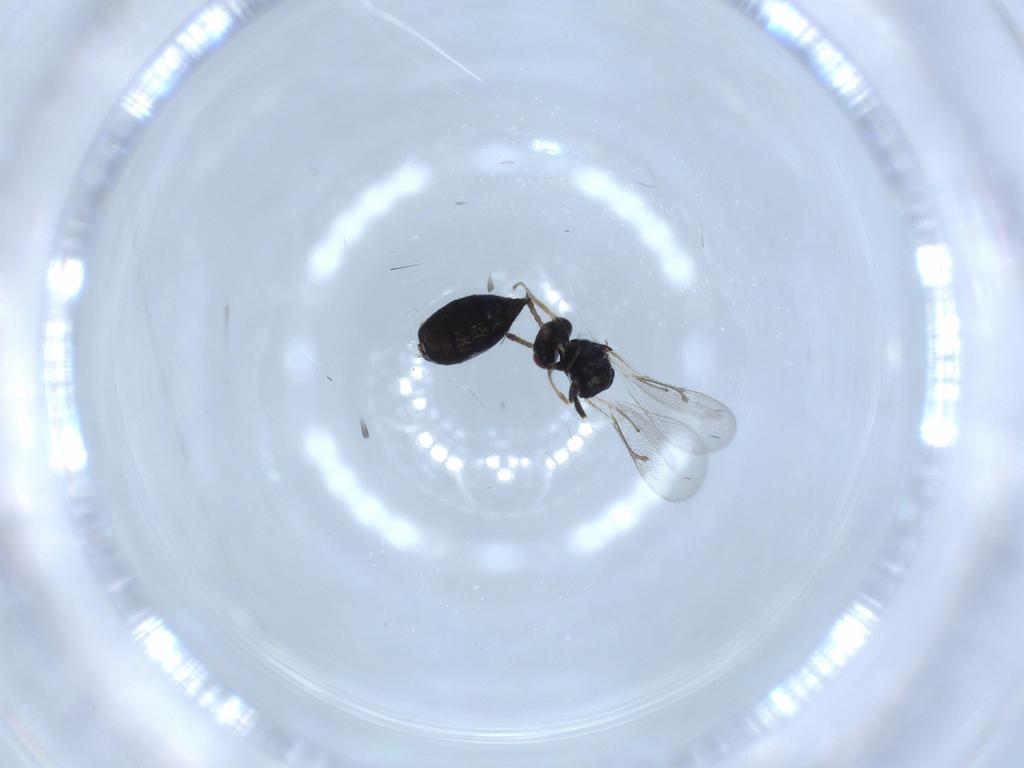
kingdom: Animalia
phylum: Arthropoda
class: Insecta
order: Hymenoptera
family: Eulophidae
